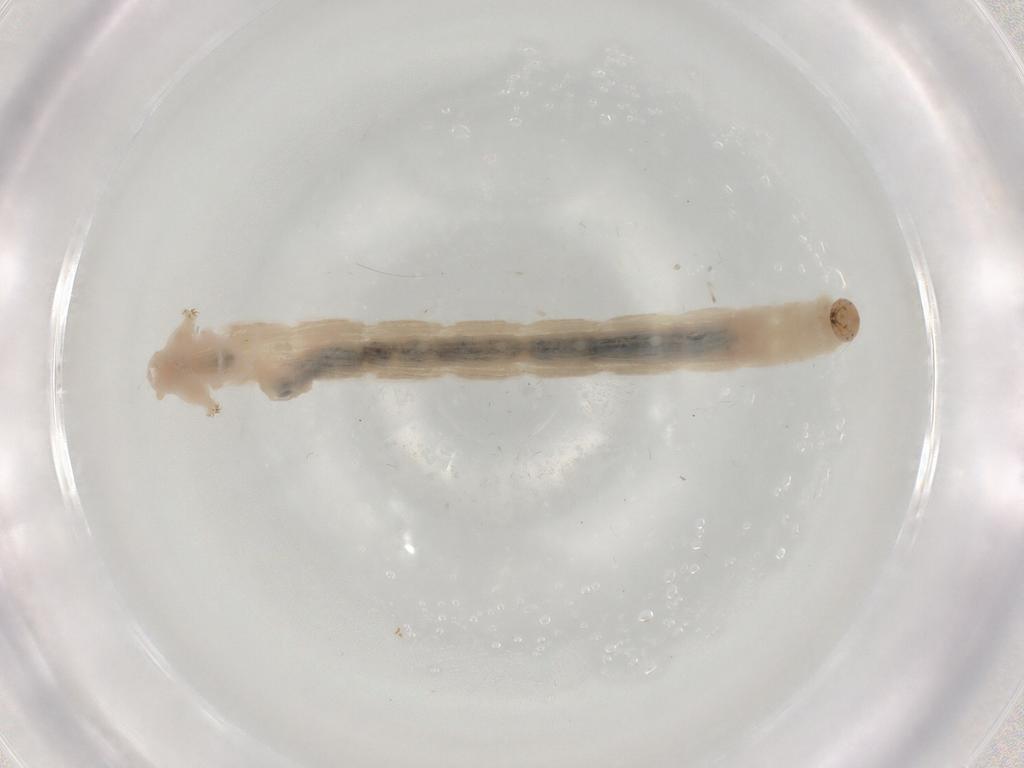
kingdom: Animalia
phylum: Arthropoda
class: Insecta
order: Diptera
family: Chironomidae
